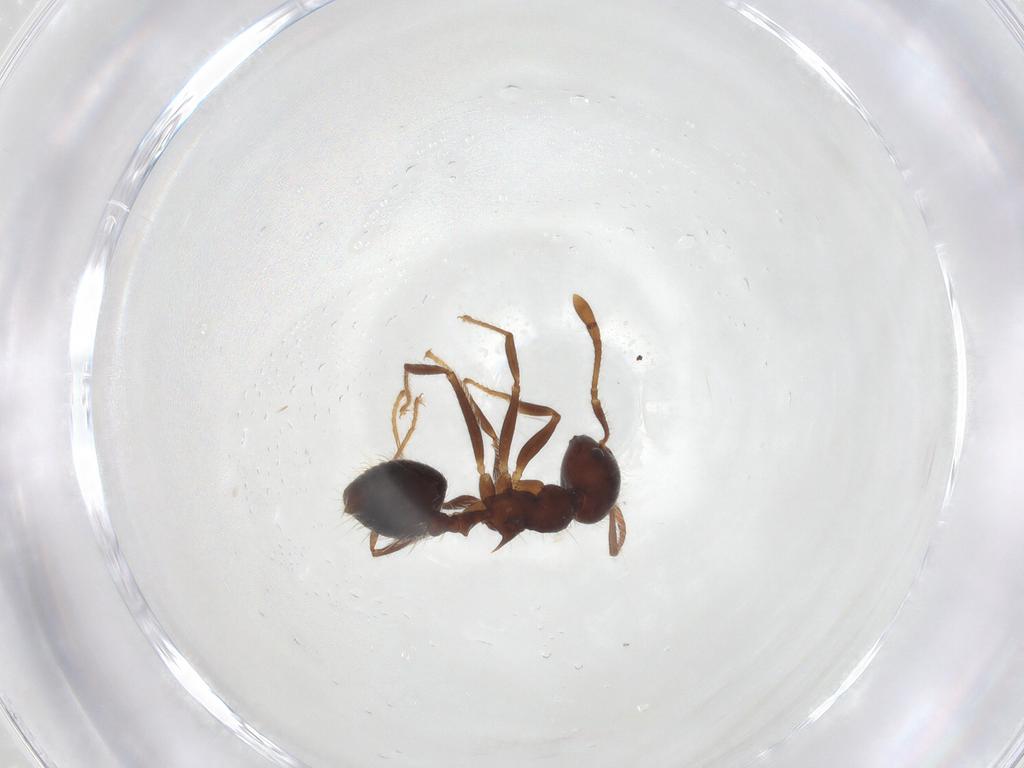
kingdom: Animalia
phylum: Arthropoda
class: Insecta
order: Hymenoptera
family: Formicidae
